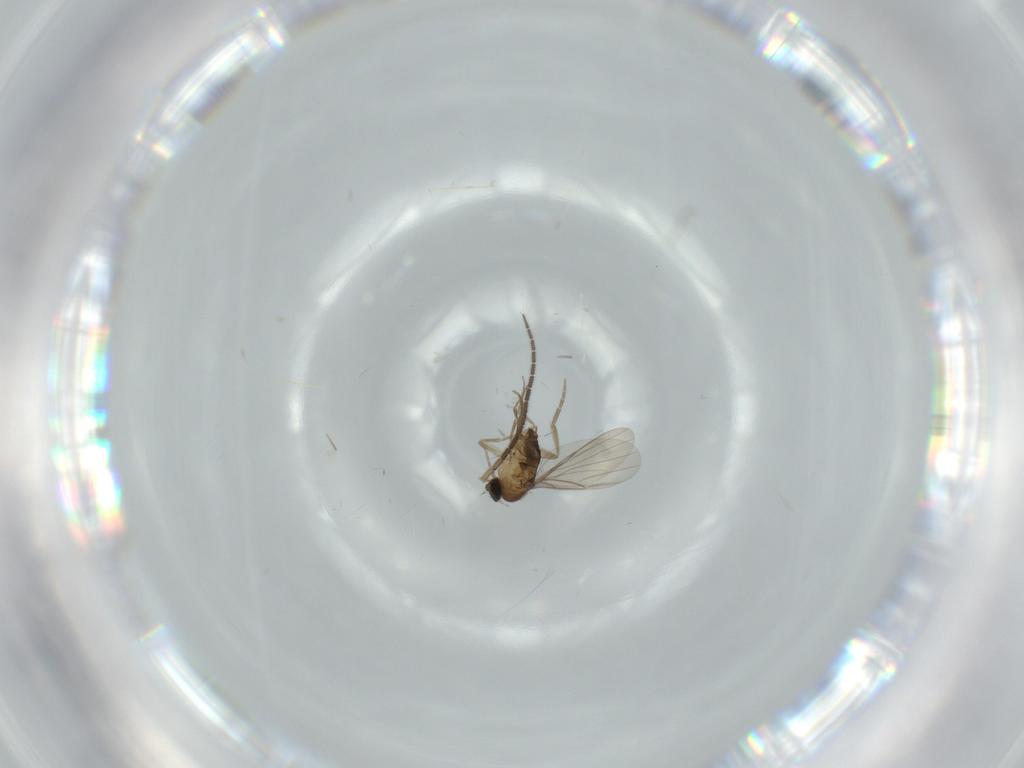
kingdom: Animalia
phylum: Arthropoda
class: Insecta
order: Diptera
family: Phoridae
